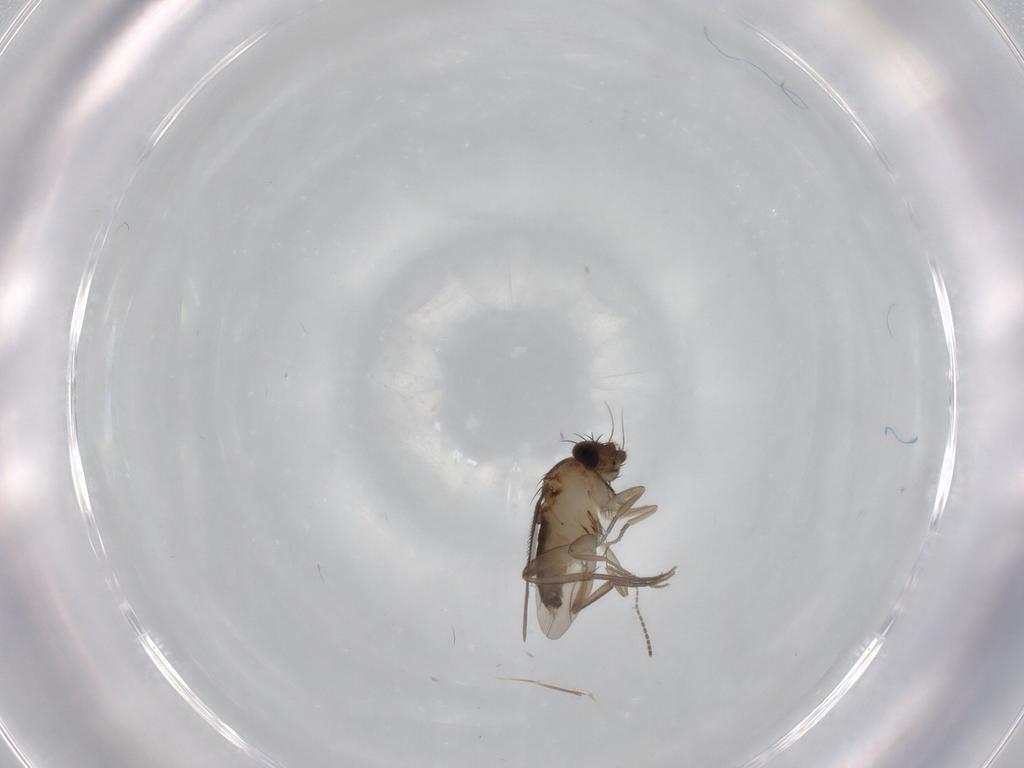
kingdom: Animalia
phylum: Arthropoda
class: Insecta
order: Diptera
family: Phoridae
